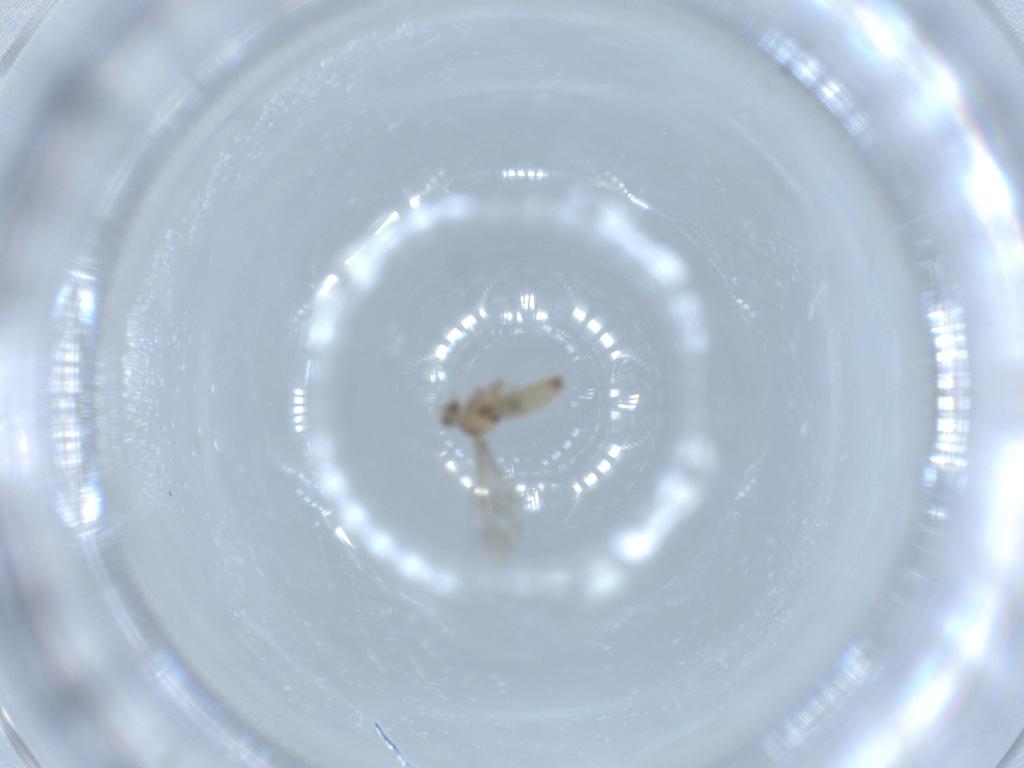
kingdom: Animalia
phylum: Arthropoda
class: Insecta
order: Diptera
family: Cecidomyiidae
